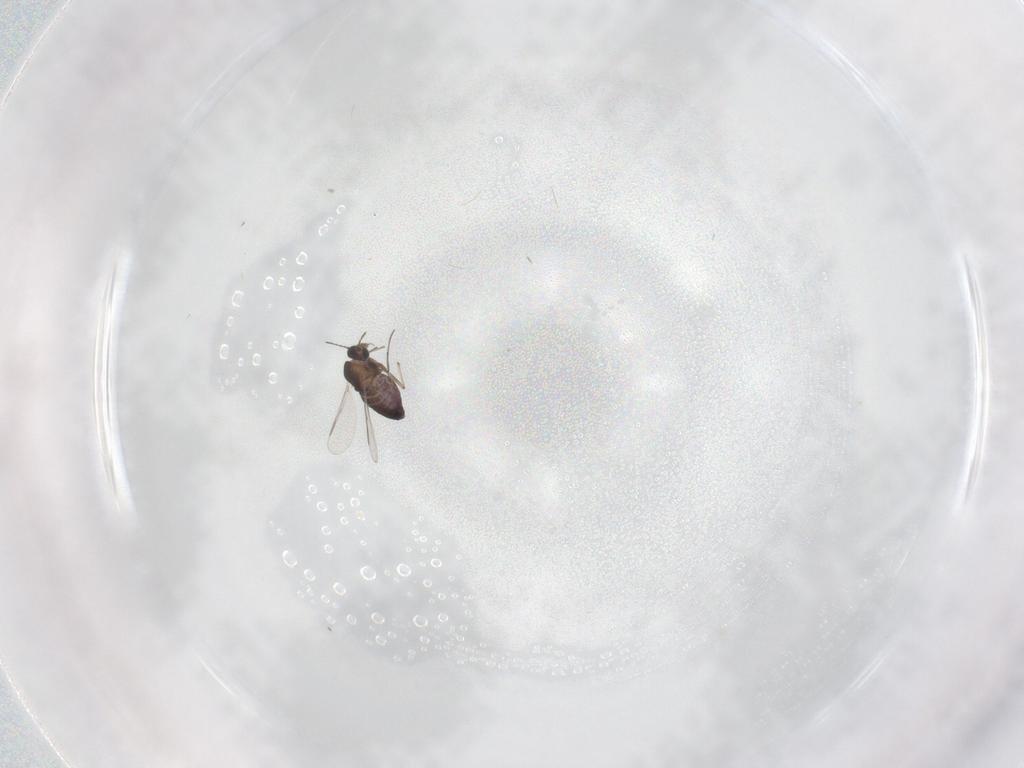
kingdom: Animalia
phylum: Arthropoda
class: Insecta
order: Diptera
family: Chironomidae
